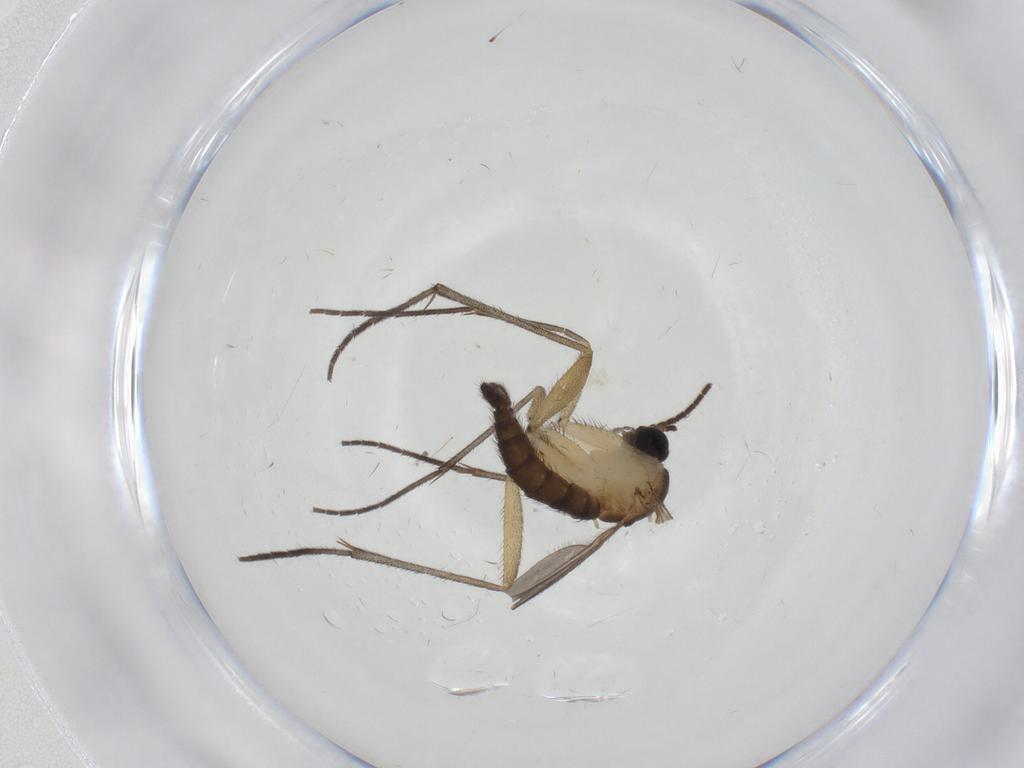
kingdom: Animalia
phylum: Arthropoda
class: Insecta
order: Diptera
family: Sciaridae
